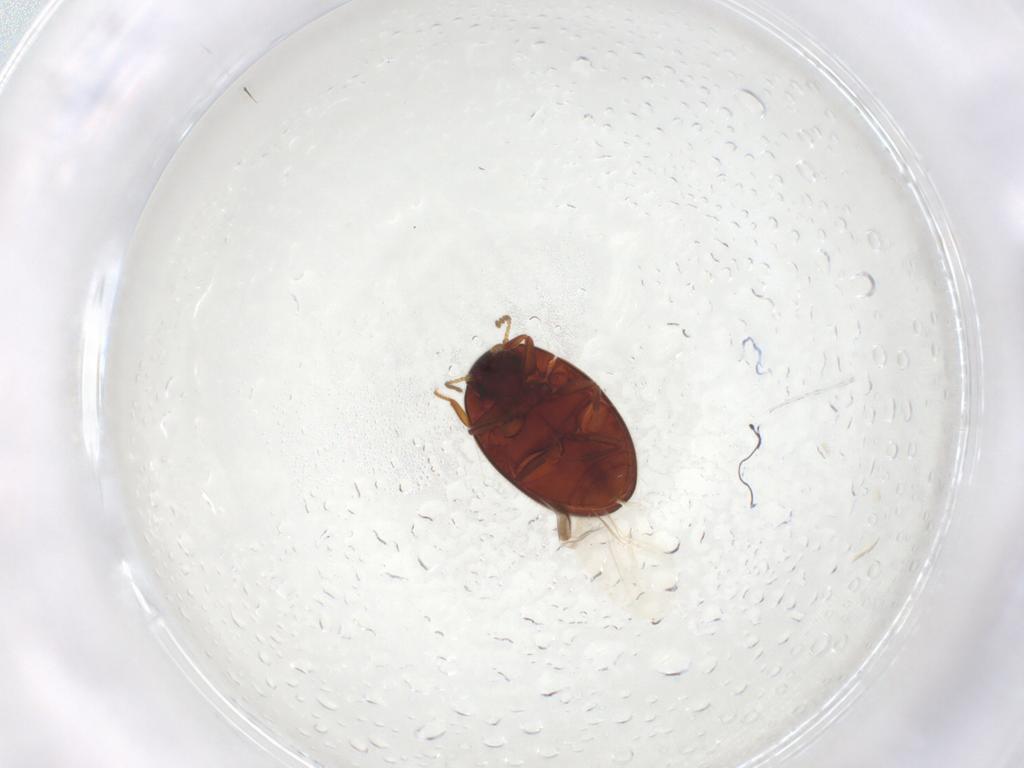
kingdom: Animalia
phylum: Arthropoda
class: Insecta
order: Coleoptera
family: Limnichidae
